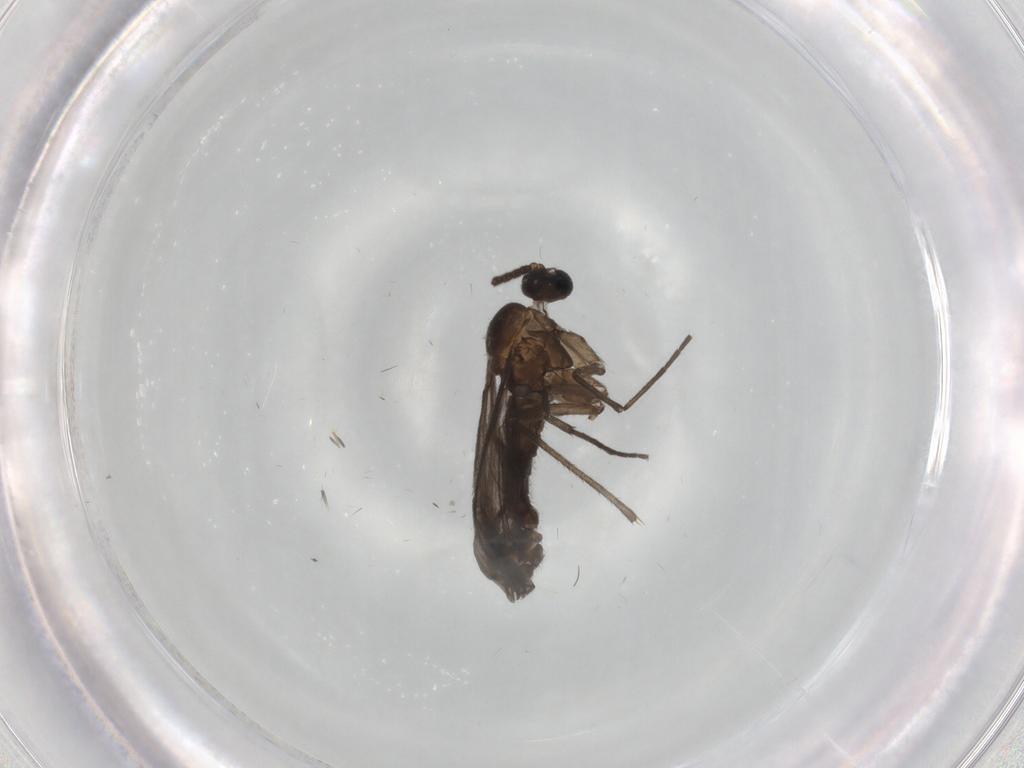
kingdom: Animalia
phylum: Arthropoda
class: Insecta
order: Diptera
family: Sciaridae
